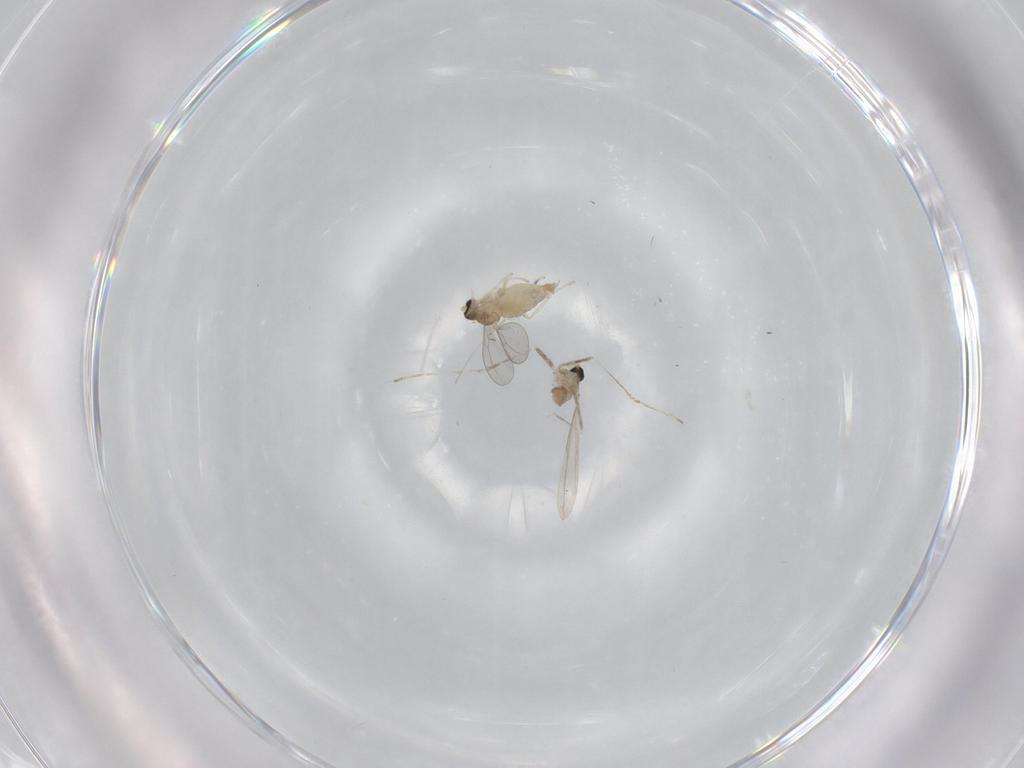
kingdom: Animalia
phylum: Arthropoda
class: Insecta
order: Diptera
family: Cecidomyiidae
